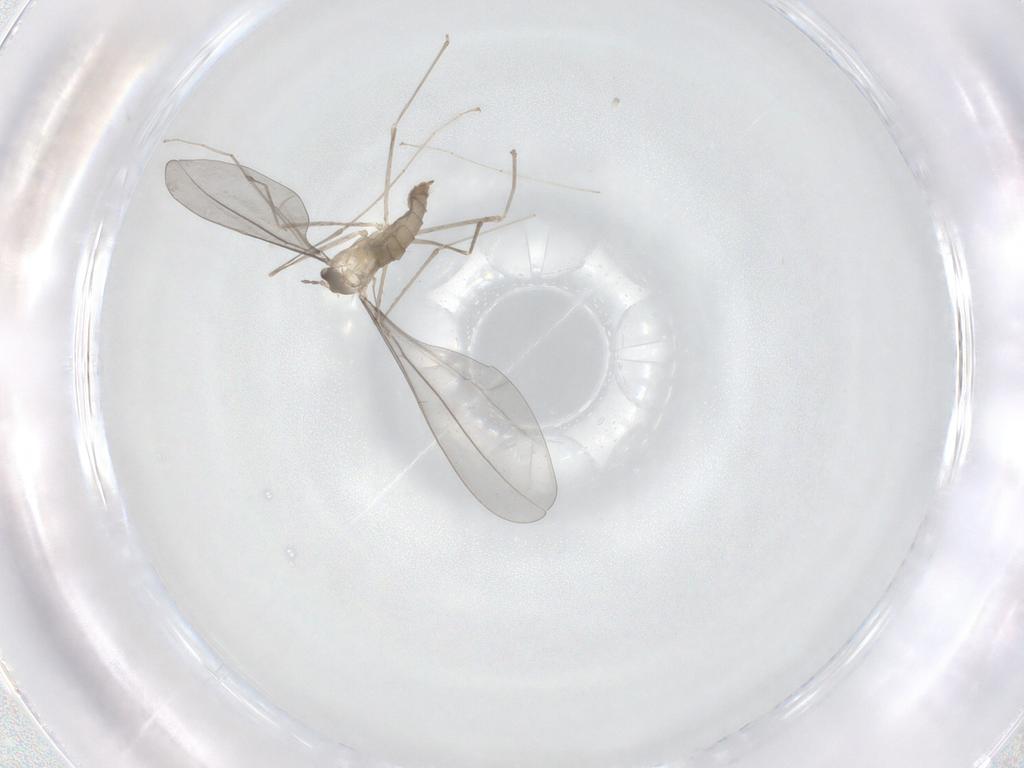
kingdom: Animalia
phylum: Arthropoda
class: Insecta
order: Diptera
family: Cecidomyiidae
